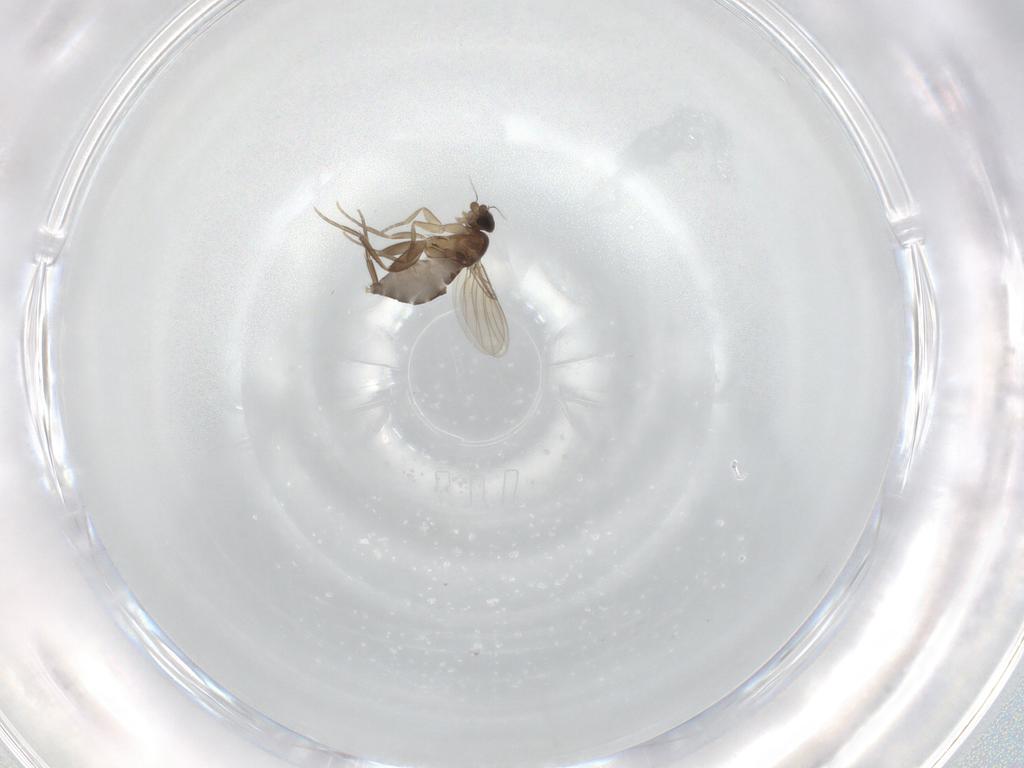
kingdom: Animalia
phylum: Arthropoda
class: Insecta
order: Diptera
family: Phoridae
